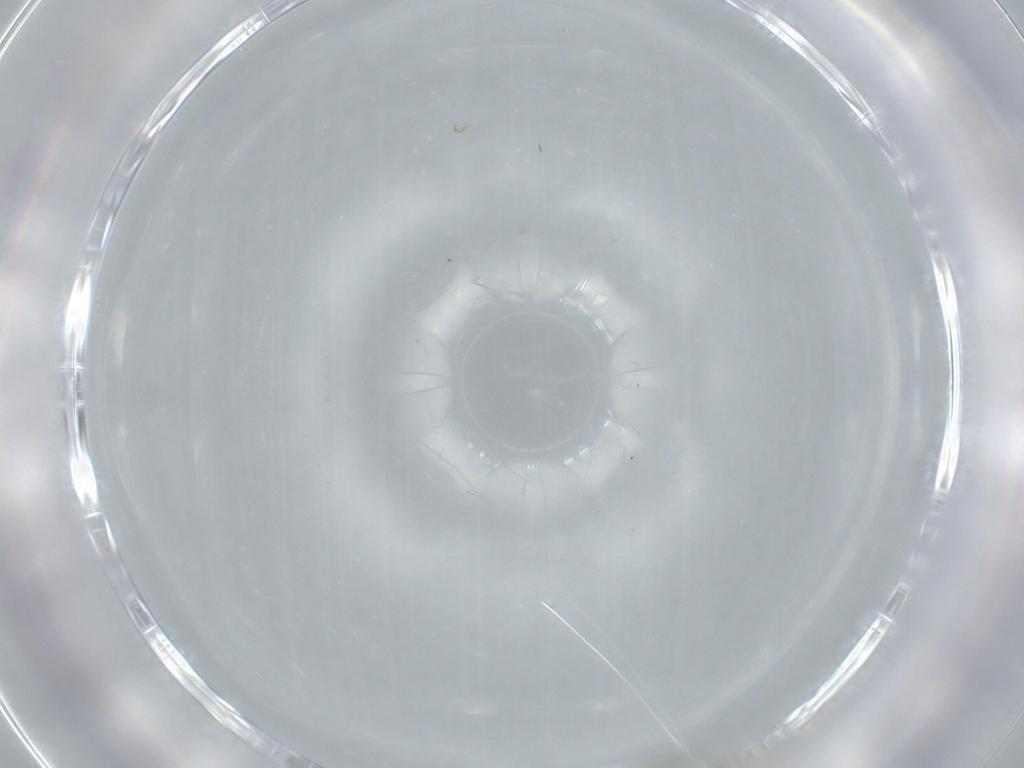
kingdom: Animalia
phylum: Arthropoda
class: Insecta
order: Diptera
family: Cecidomyiidae
